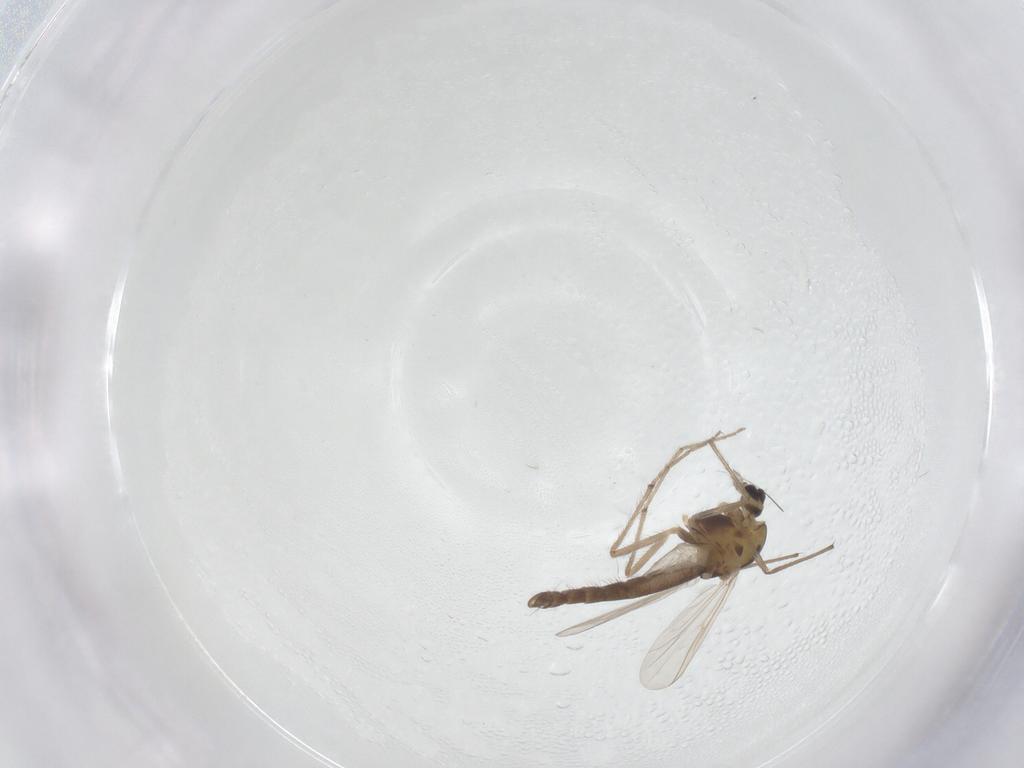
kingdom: Animalia
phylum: Arthropoda
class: Insecta
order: Diptera
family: Chironomidae
